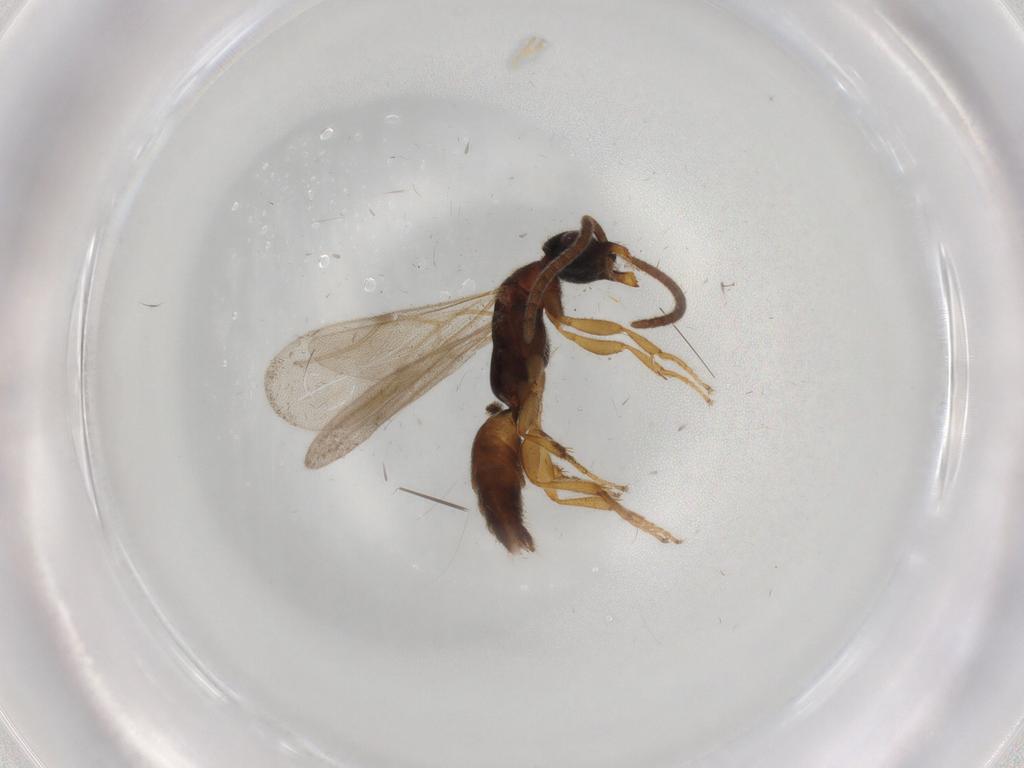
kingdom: Animalia
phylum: Arthropoda
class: Insecta
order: Hymenoptera
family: Bethylidae
